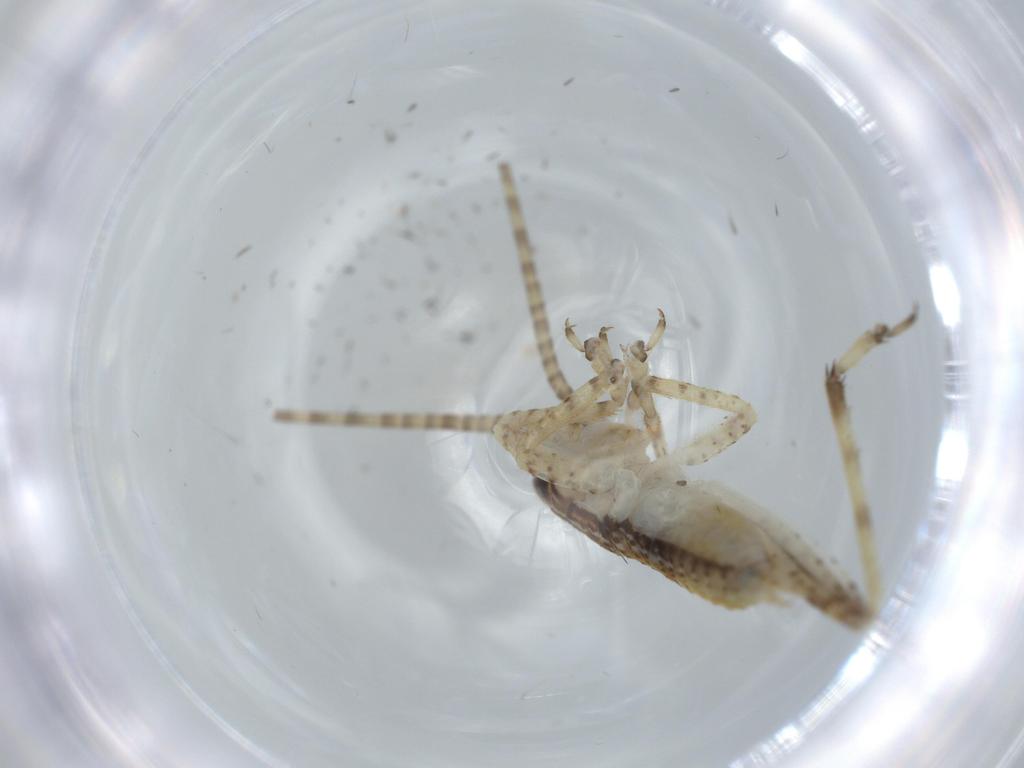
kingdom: Animalia
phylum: Arthropoda
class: Insecta
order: Orthoptera
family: Gryllidae
